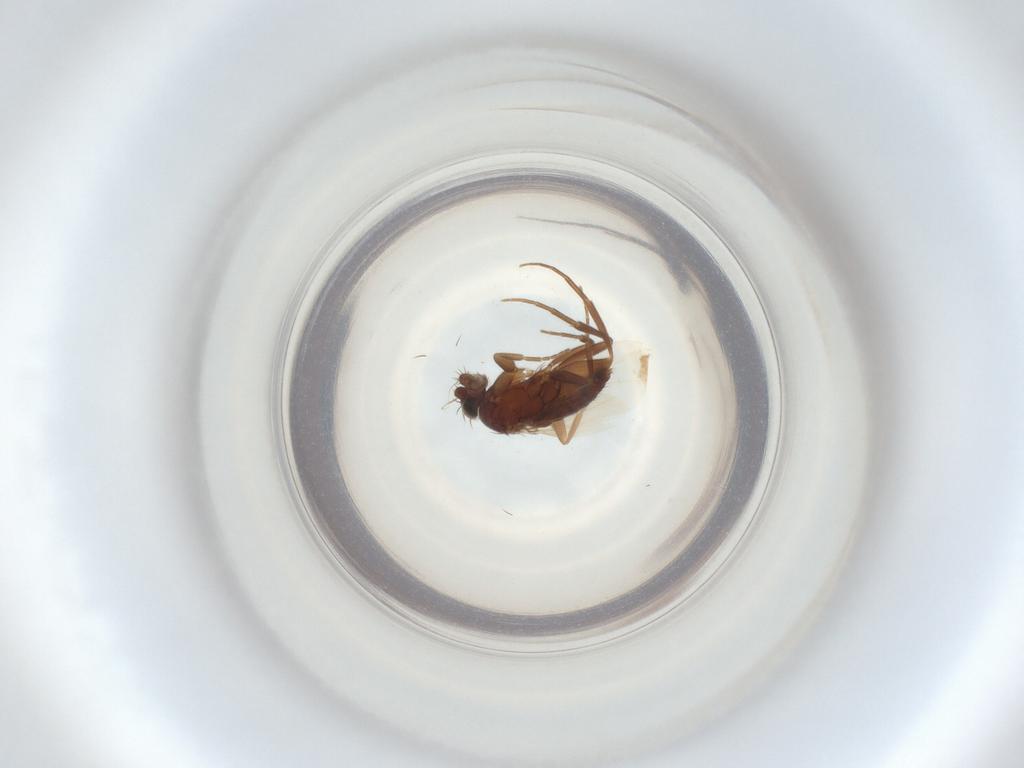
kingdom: Animalia
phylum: Arthropoda
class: Insecta
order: Diptera
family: Phoridae
